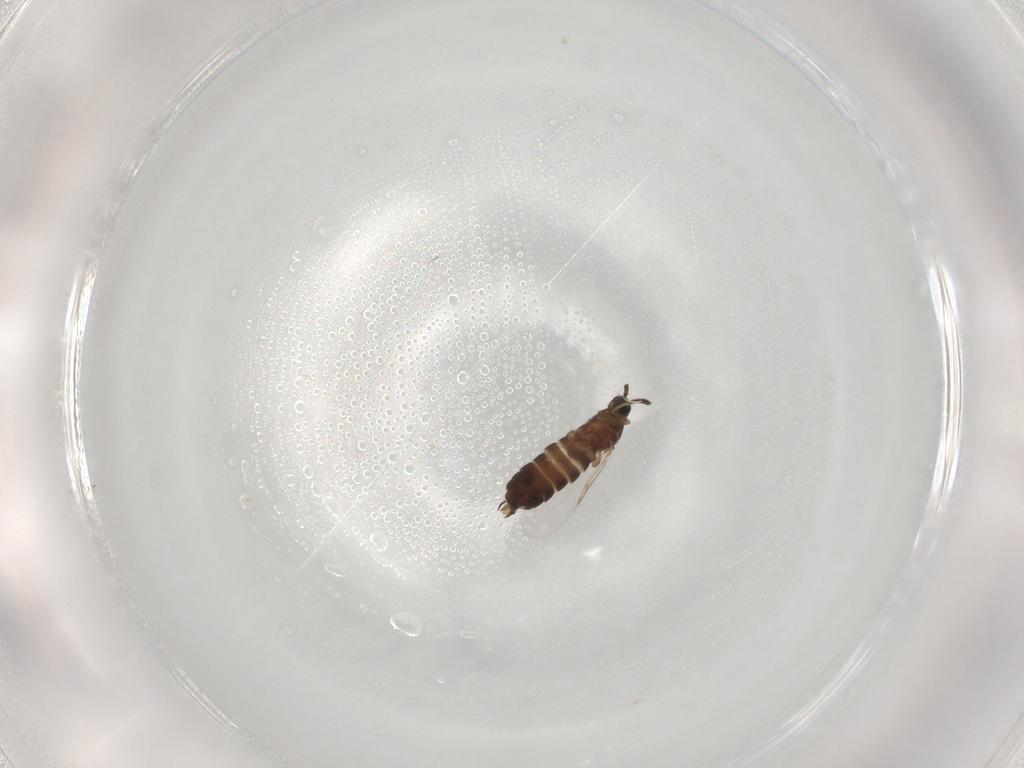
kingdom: Animalia
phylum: Arthropoda
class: Insecta
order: Diptera
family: Scatopsidae
